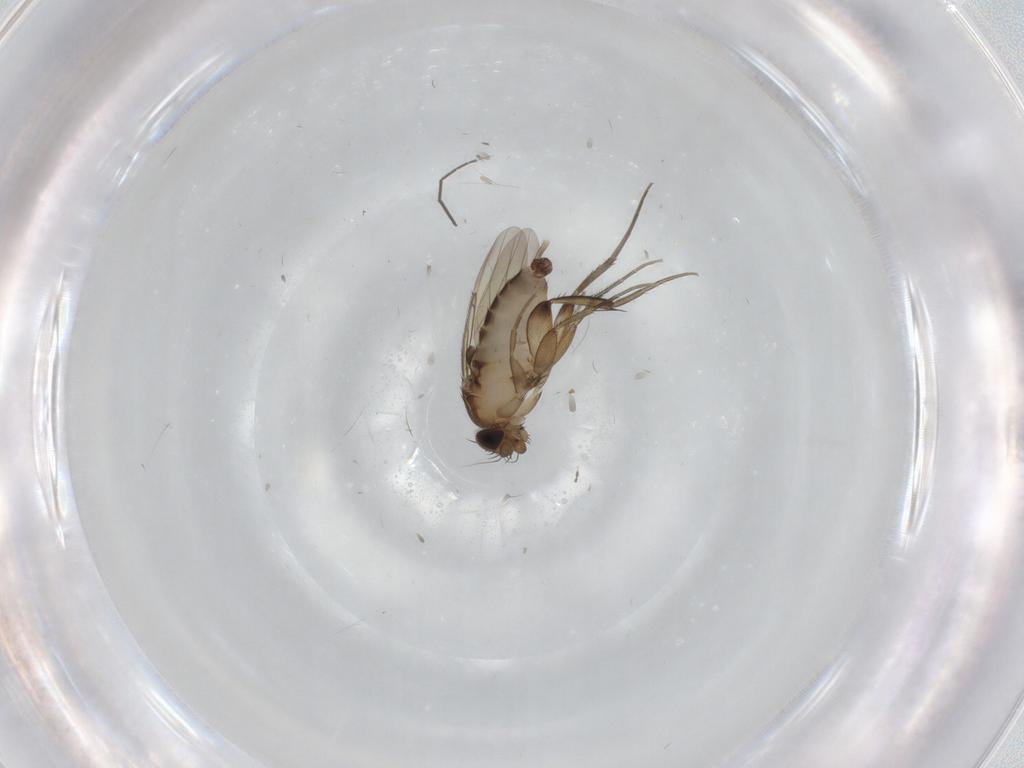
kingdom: Animalia
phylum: Arthropoda
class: Insecta
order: Diptera
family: Phoridae
